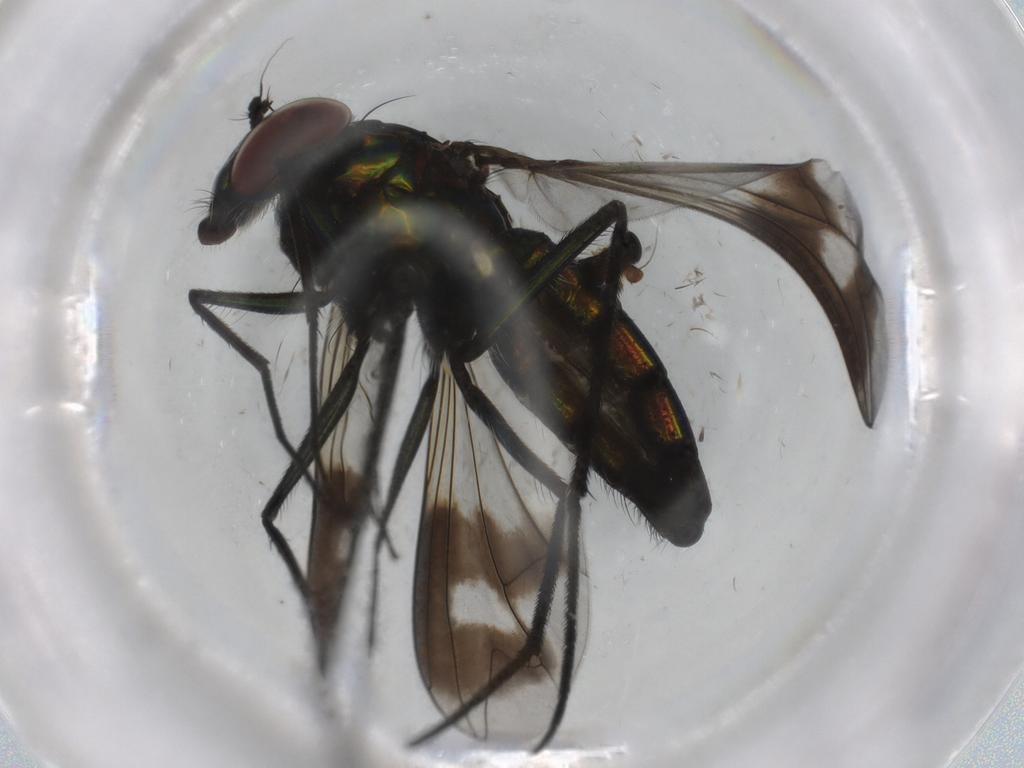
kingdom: Animalia
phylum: Arthropoda
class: Insecta
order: Diptera
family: Dolichopodidae
